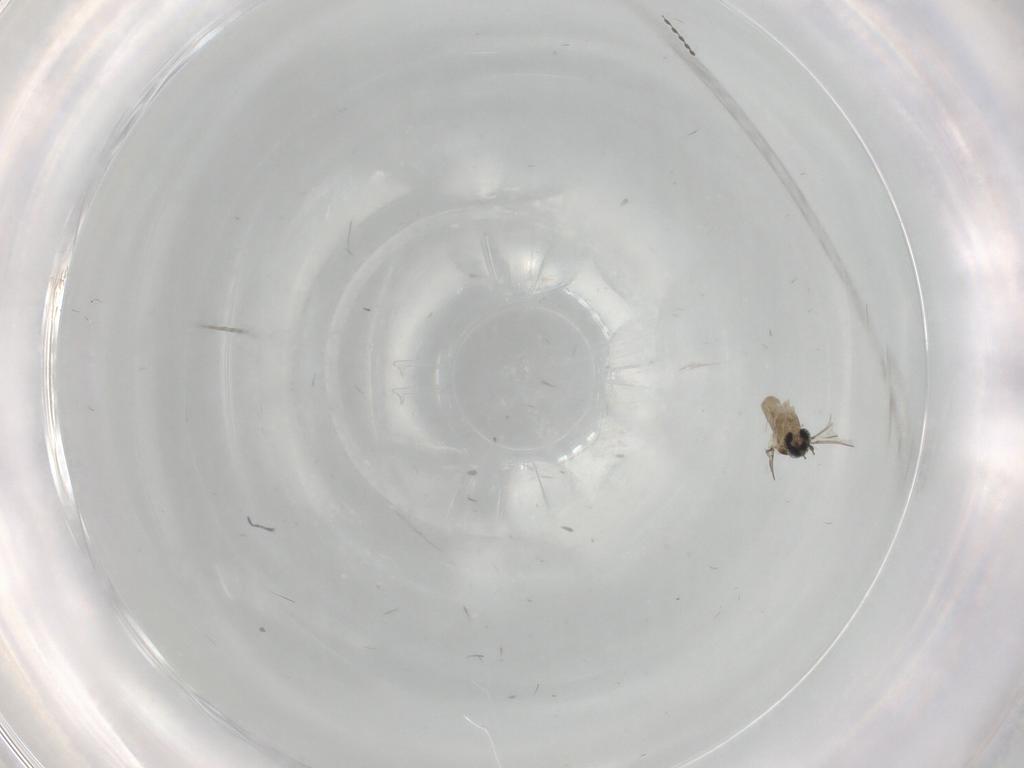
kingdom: Animalia
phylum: Arthropoda
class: Insecta
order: Diptera
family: Cecidomyiidae
